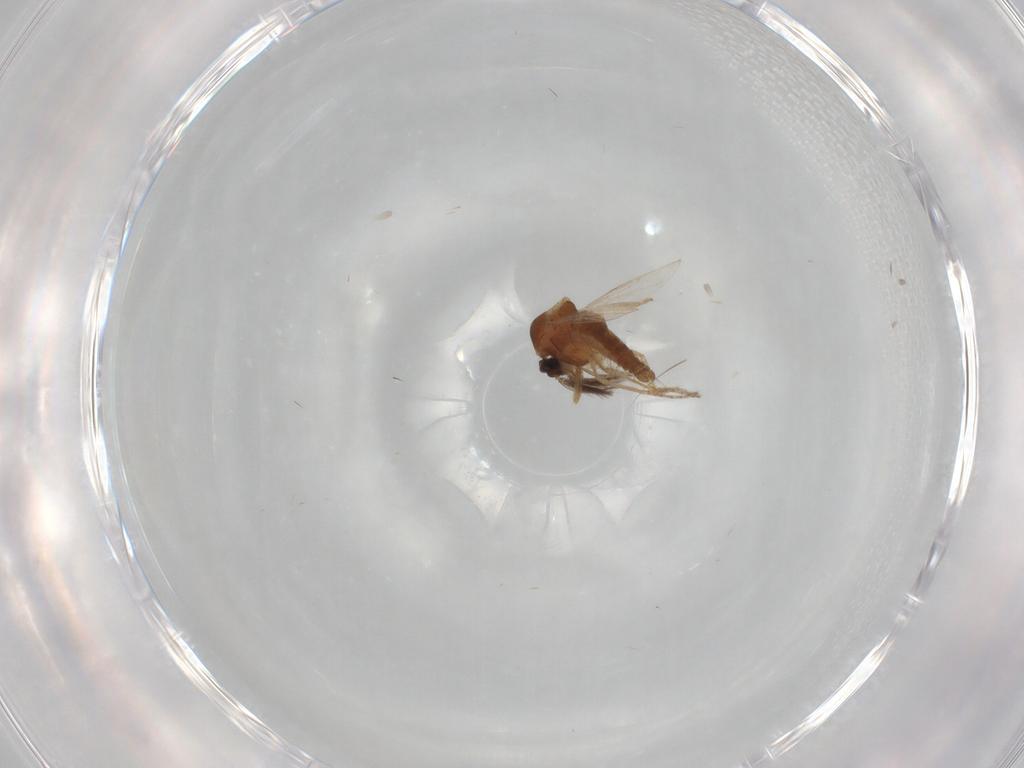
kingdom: Animalia
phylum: Arthropoda
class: Insecta
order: Diptera
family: Ceratopogonidae
